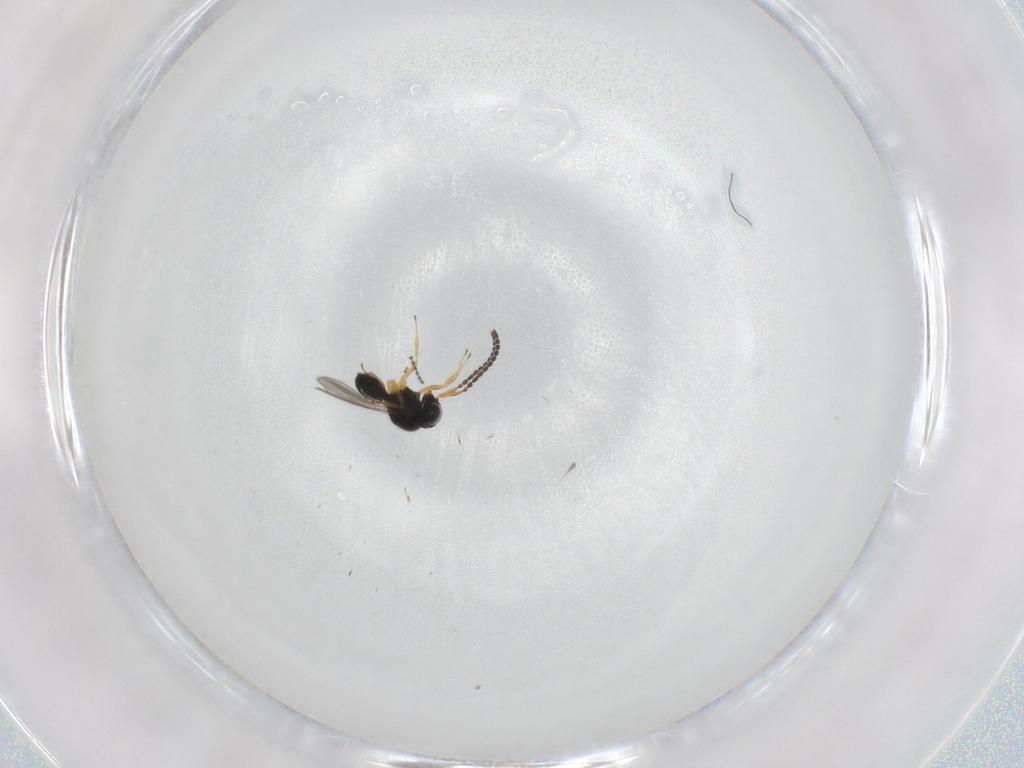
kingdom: Animalia
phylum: Arthropoda
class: Insecta
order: Hymenoptera
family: Scelionidae
